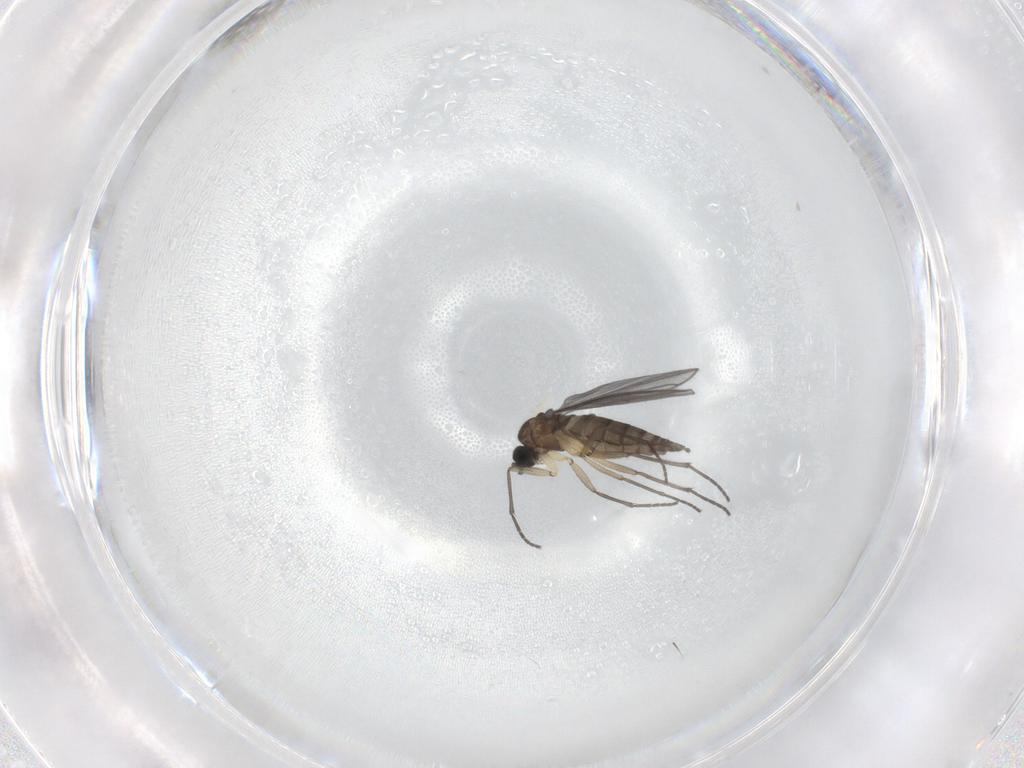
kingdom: Animalia
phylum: Arthropoda
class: Insecta
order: Diptera
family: Sciaridae
